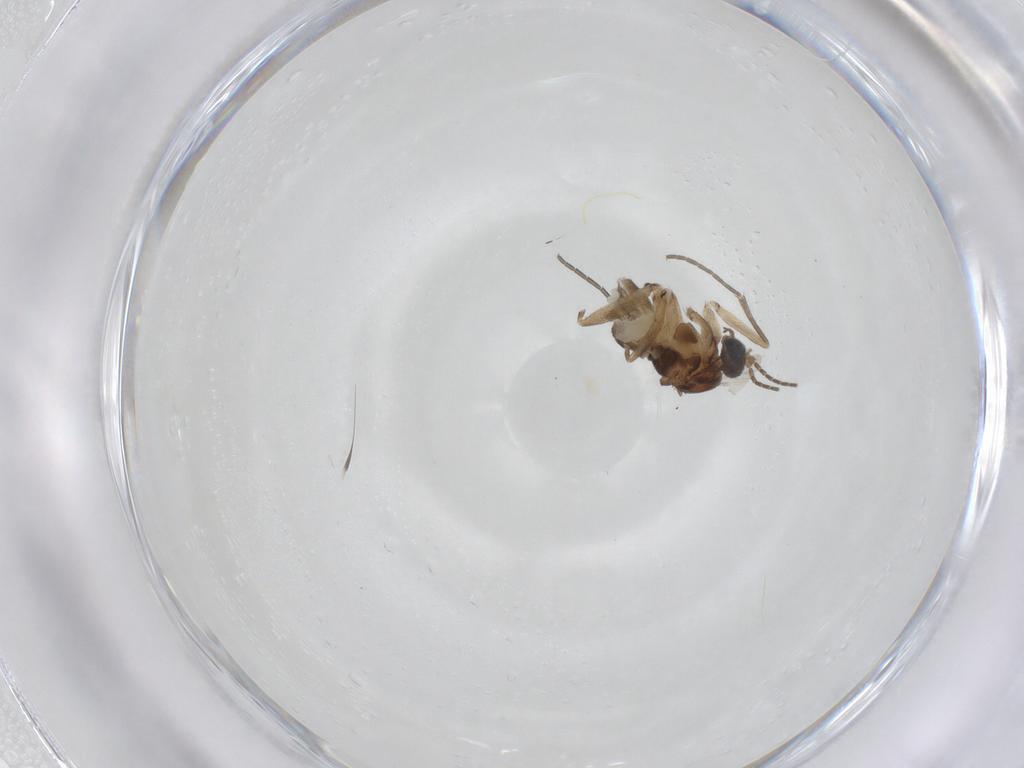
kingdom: Animalia
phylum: Arthropoda
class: Insecta
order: Diptera
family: Sciaridae
